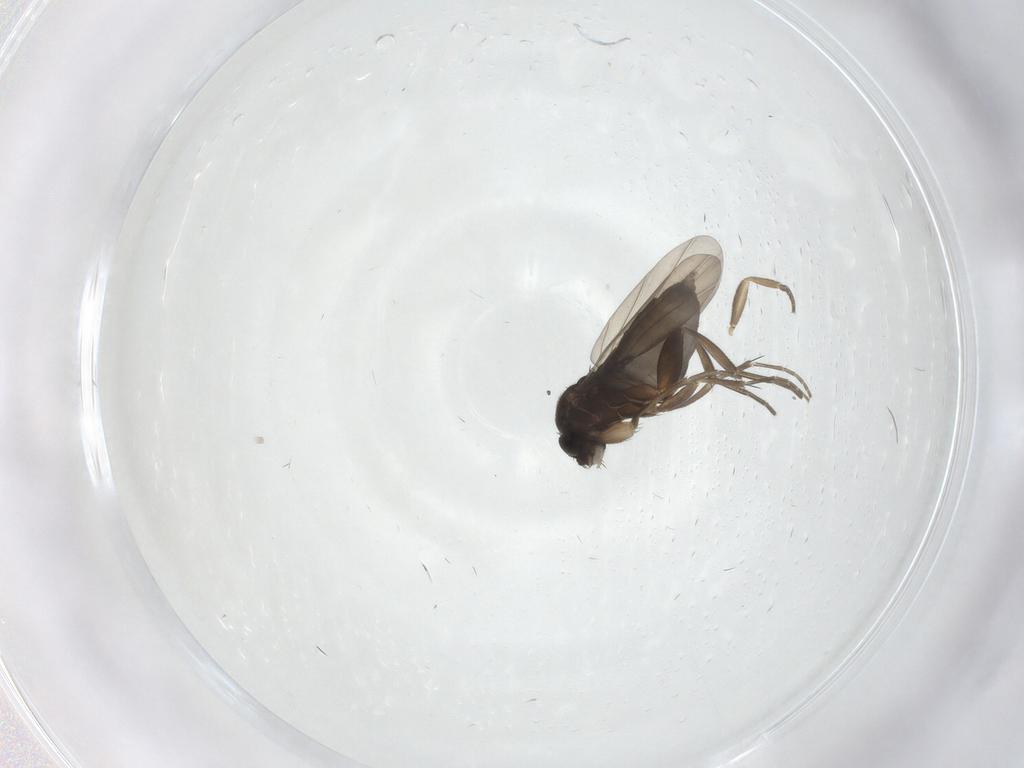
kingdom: Animalia
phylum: Arthropoda
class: Insecta
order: Diptera
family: Phoridae
